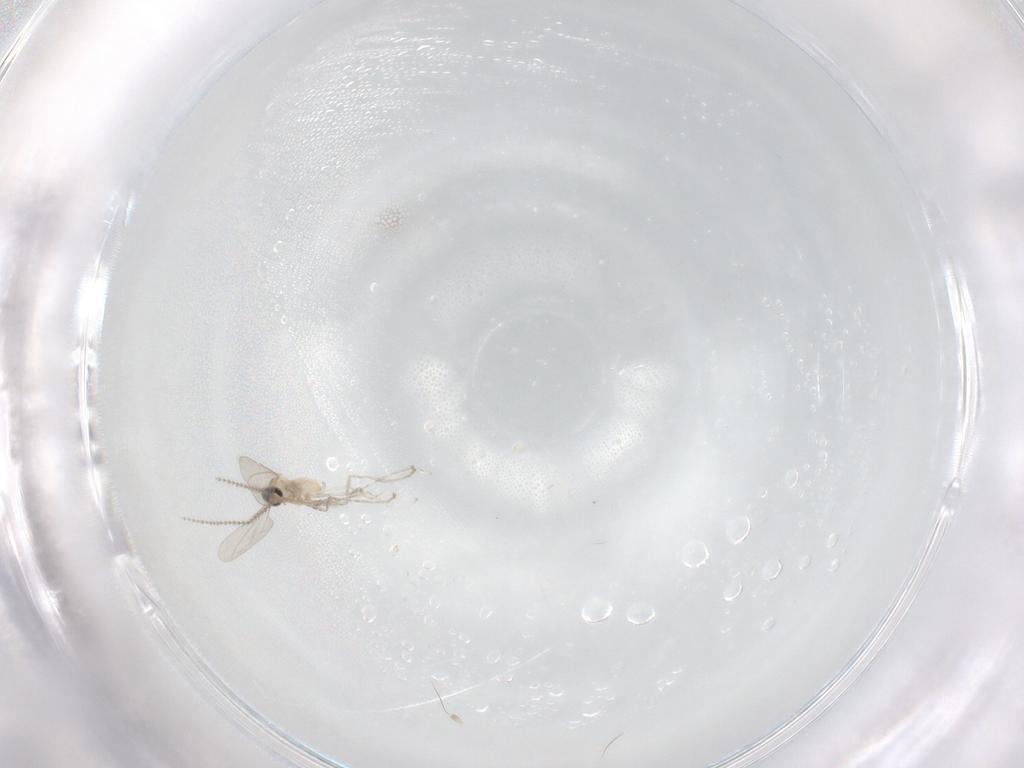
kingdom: Animalia
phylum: Arthropoda
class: Insecta
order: Diptera
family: Cecidomyiidae
